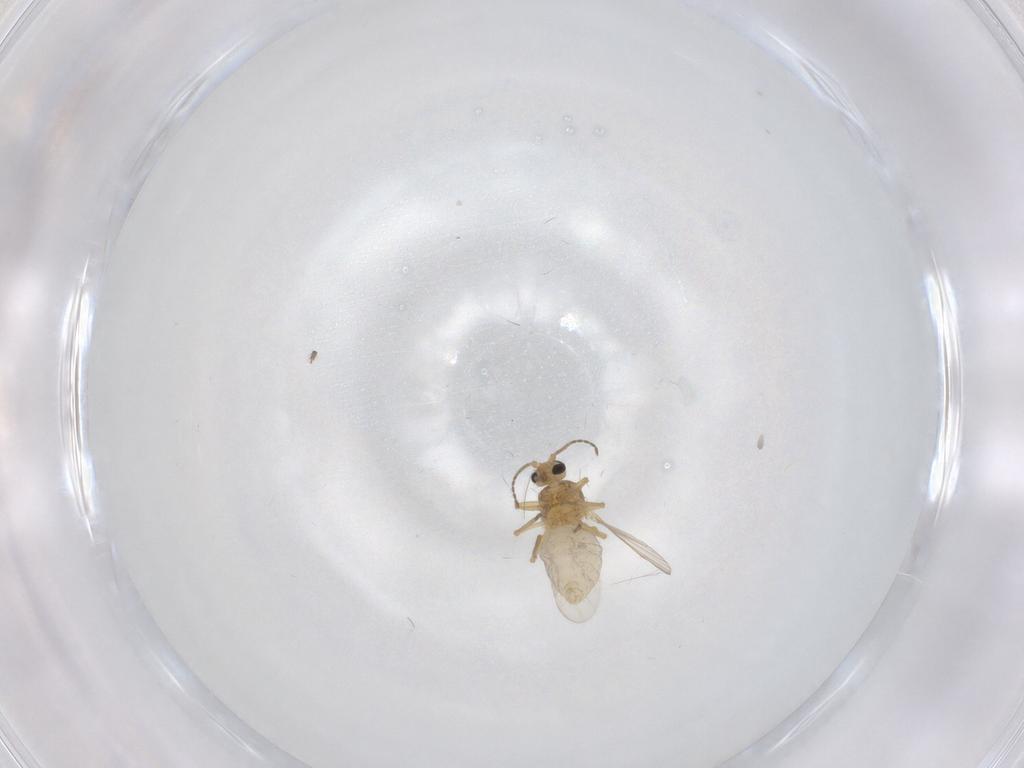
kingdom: Animalia
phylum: Arthropoda
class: Insecta
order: Diptera
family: Ceratopogonidae
